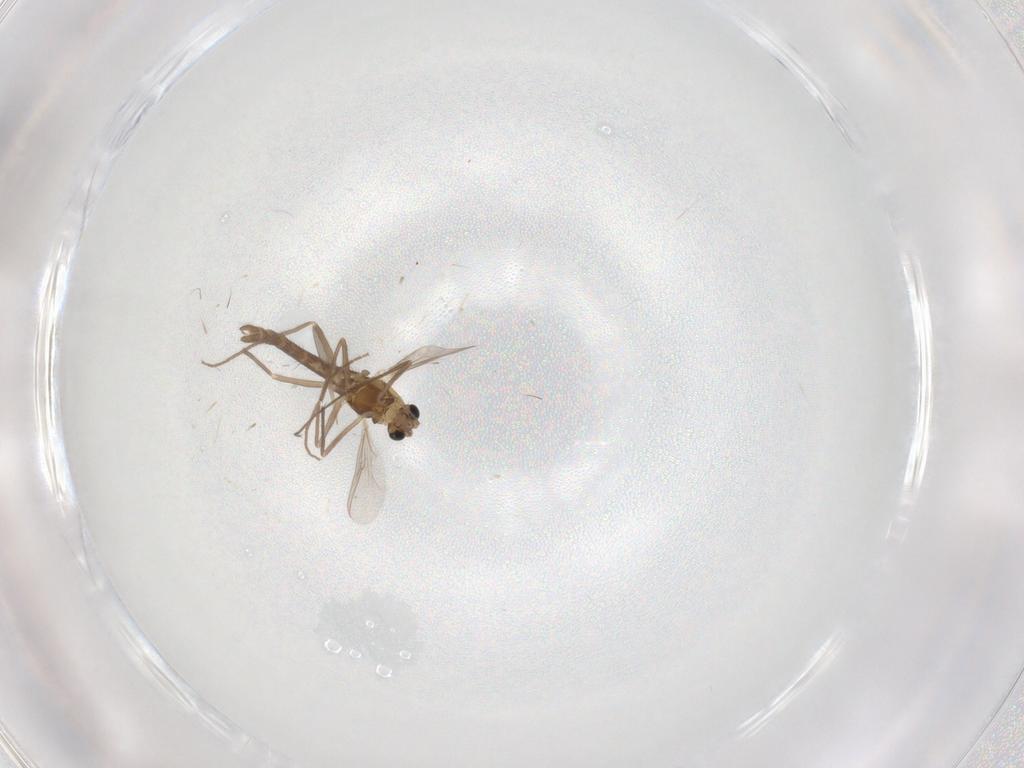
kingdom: Animalia
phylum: Arthropoda
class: Insecta
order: Diptera
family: Chironomidae
